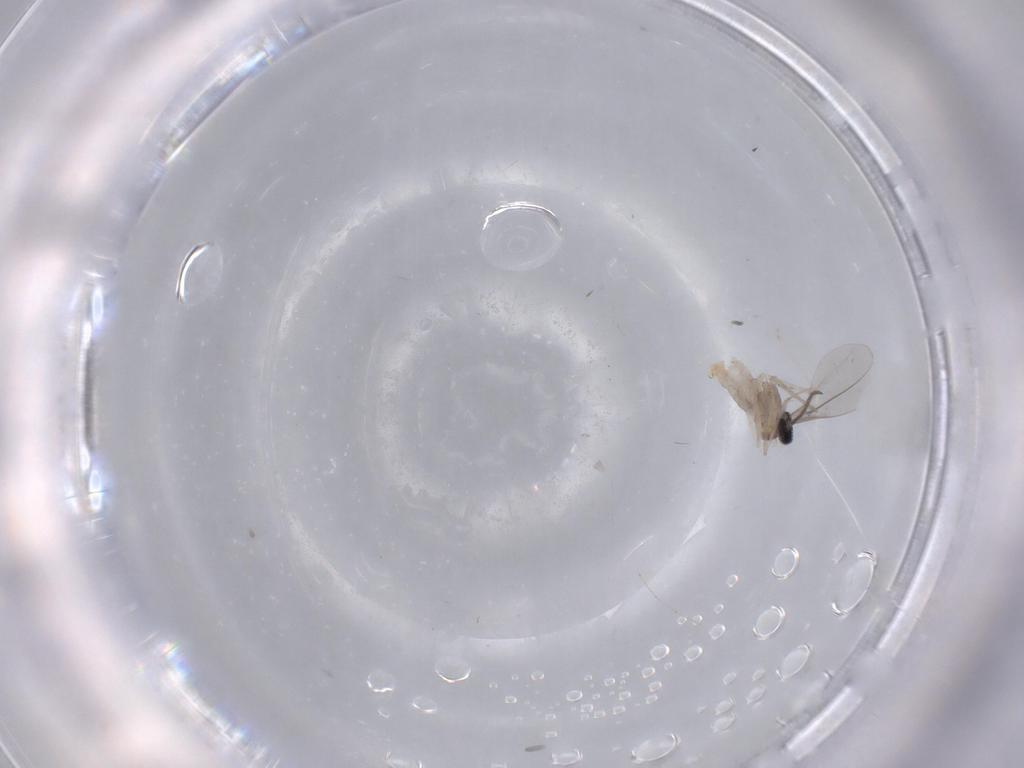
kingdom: Animalia
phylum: Arthropoda
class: Insecta
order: Diptera
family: Cecidomyiidae
